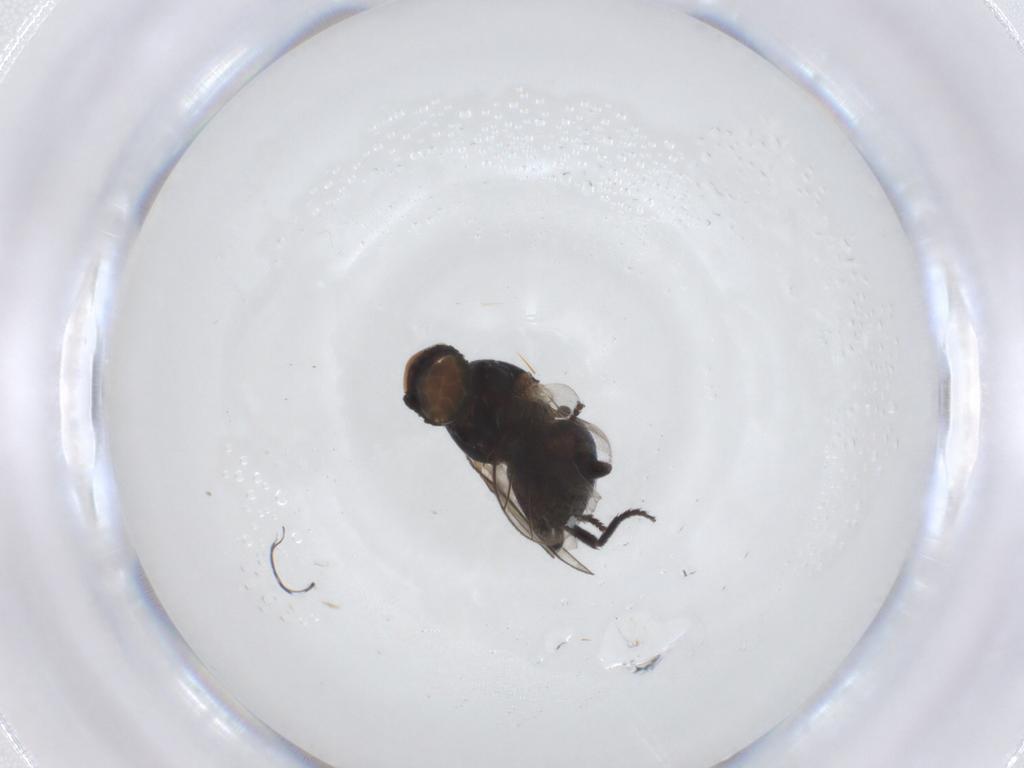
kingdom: Animalia
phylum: Arthropoda
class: Insecta
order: Diptera
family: Agromyzidae
